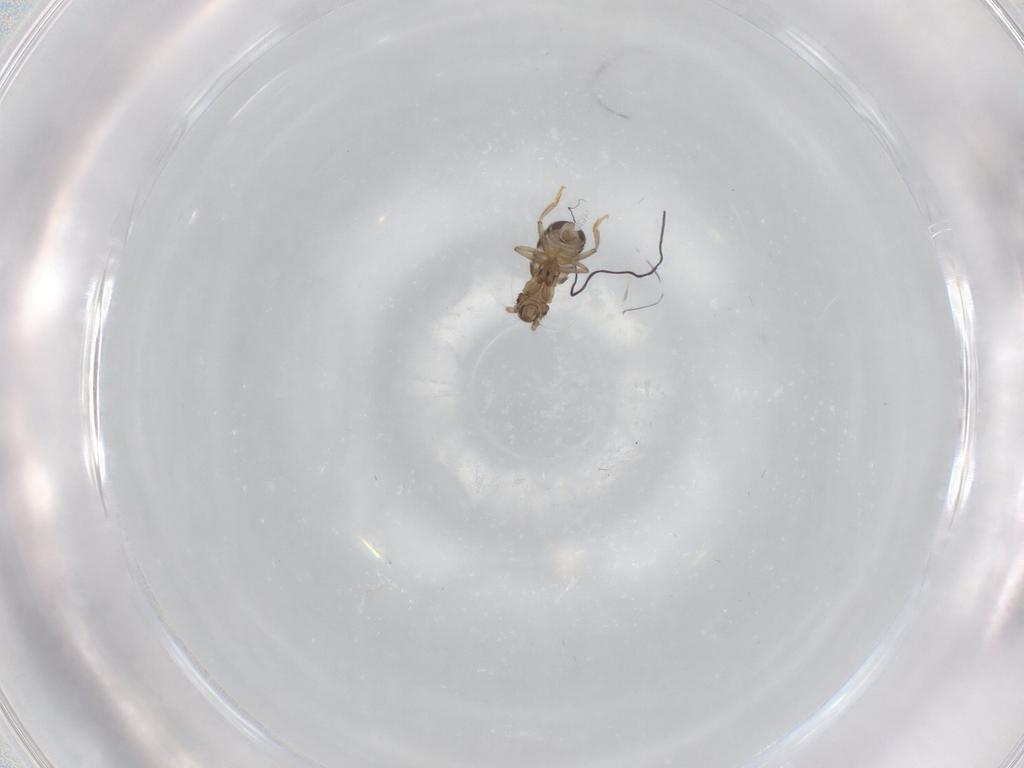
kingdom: Animalia
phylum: Arthropoda
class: Insecta
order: Diptera
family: Phoridae
